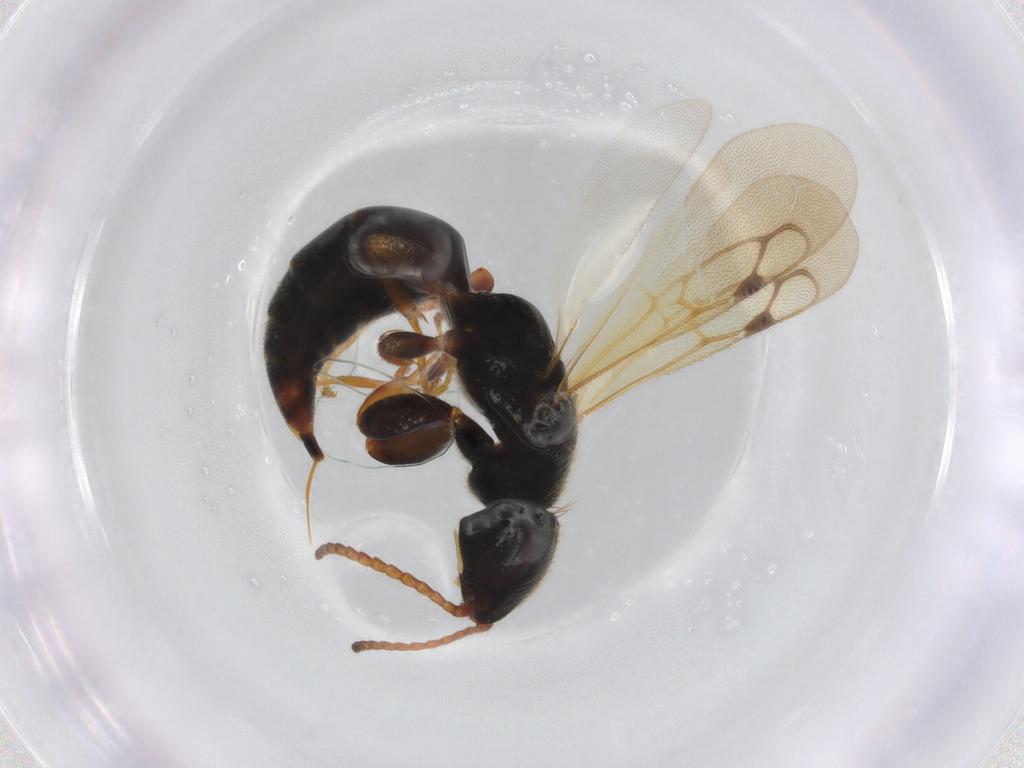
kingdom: Animalia
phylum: Arthropoda
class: Insecta
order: Hymenoptera
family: Bethylidae
